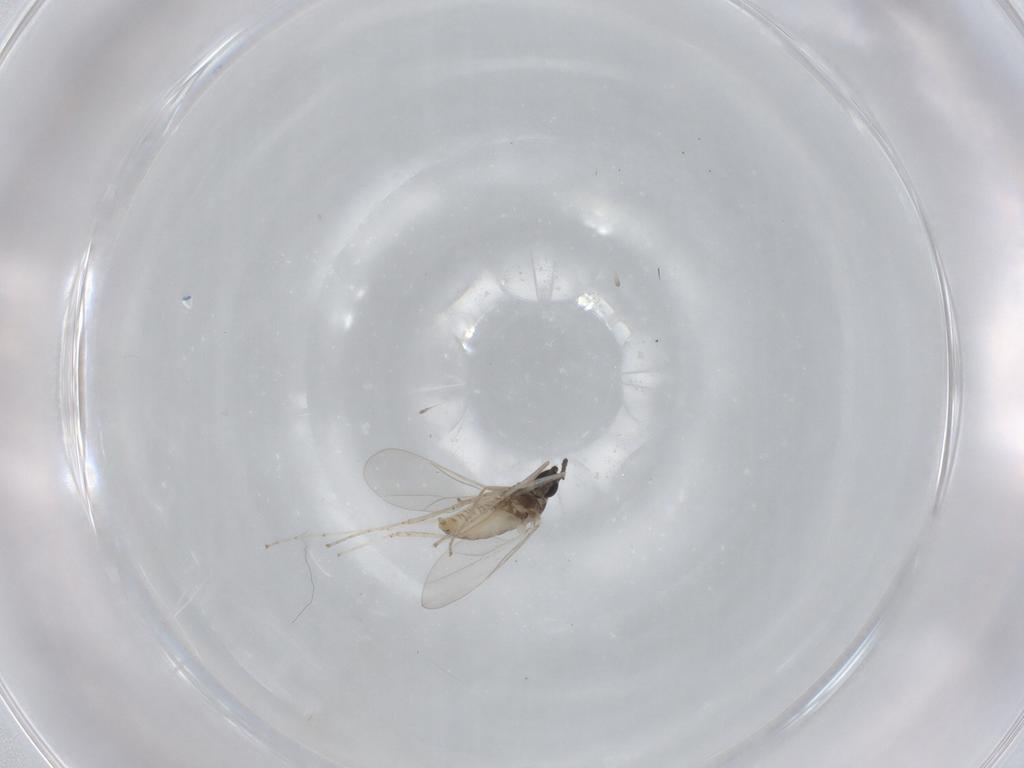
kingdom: Animalia
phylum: Arthropoda
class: Insecta
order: Diptera
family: Cecidomyiidae
